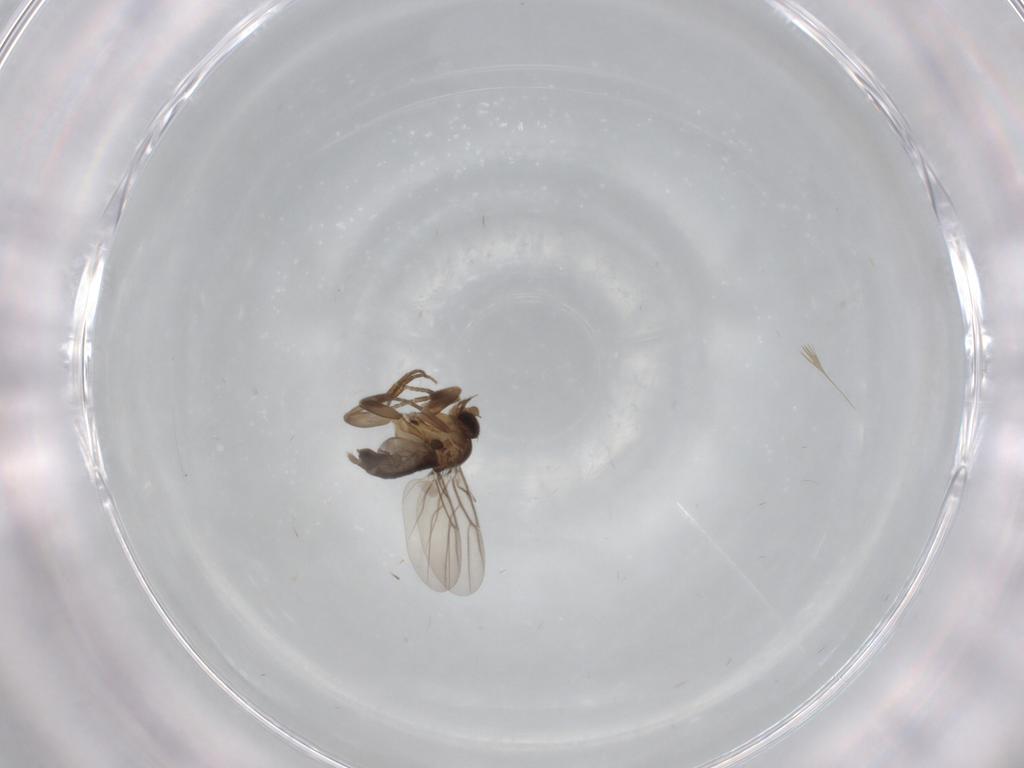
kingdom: Animalia
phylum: Arthropoda
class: Insecta
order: Diptera
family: Phoridae
